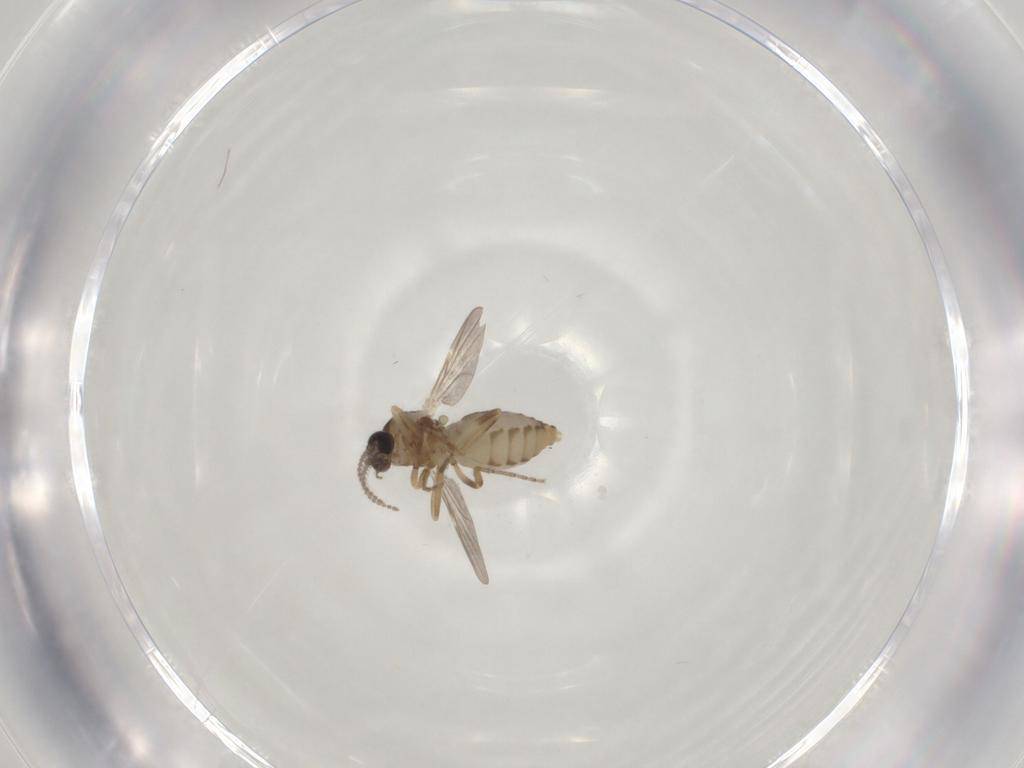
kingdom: Animalia
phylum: Arthropoda
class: Insecta
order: Diptera
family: Ceratopogonidae
